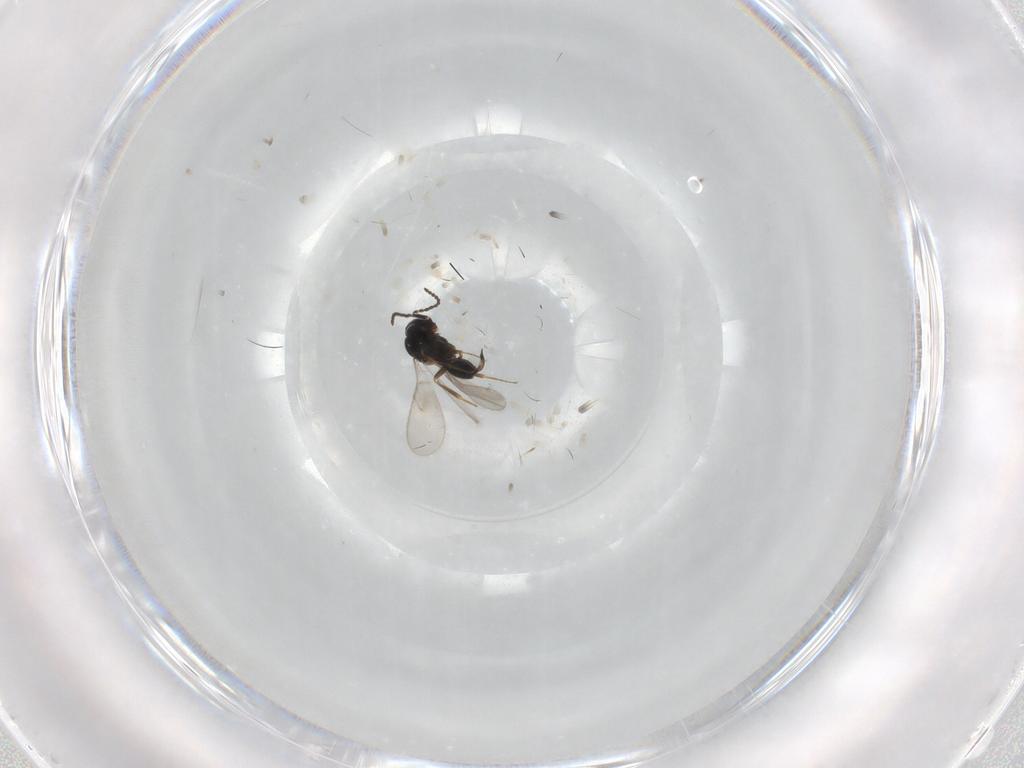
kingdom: Animalia
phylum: Arthropoda
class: Insecta
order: Hymenoptera
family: Scelionidae
